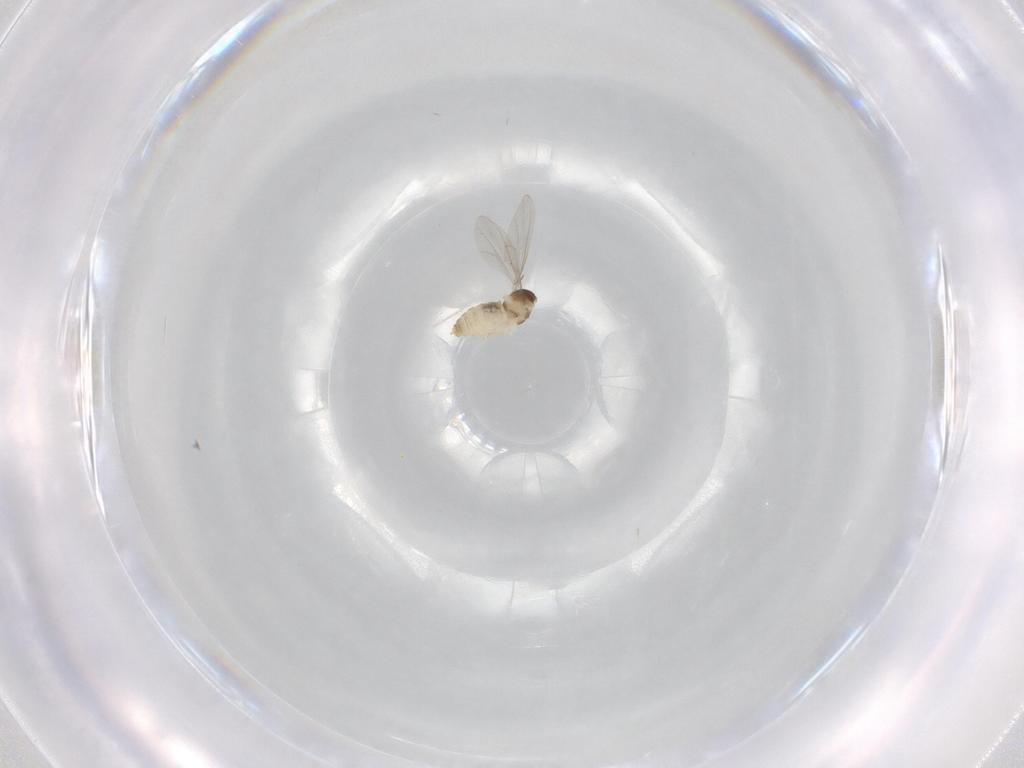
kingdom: Animalia
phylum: Arthropoda
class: Insecta
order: Diptera
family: Cecidomyiidae
